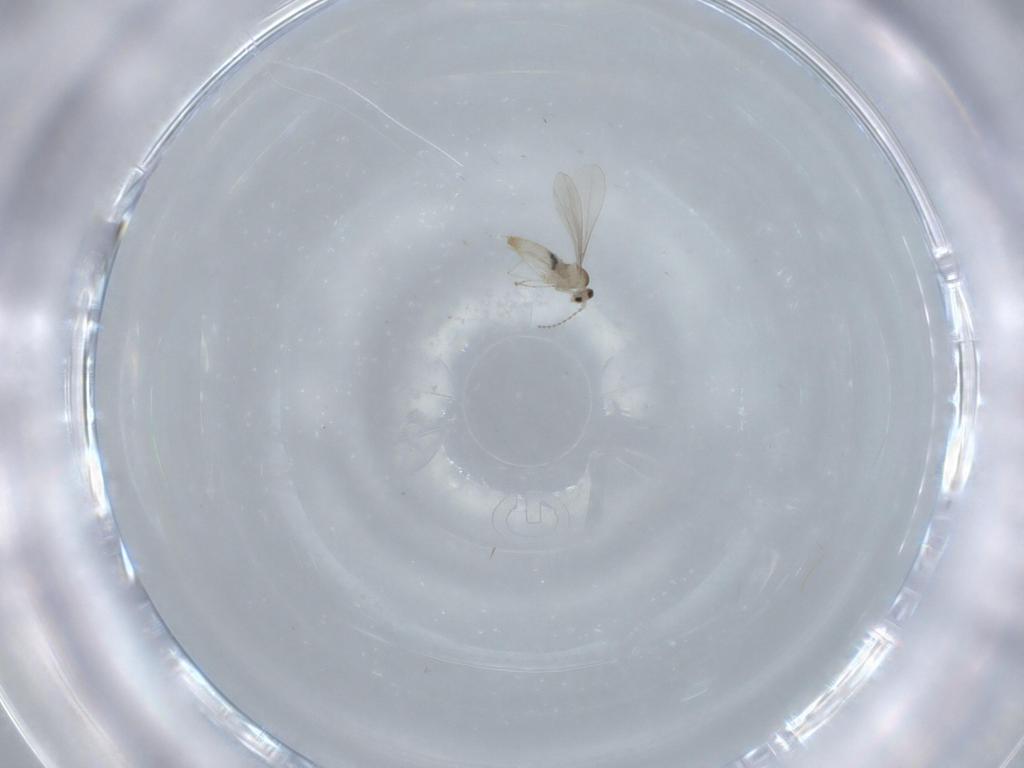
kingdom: Animalia
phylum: Arthropoda
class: Insecta
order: Diptera
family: Cecidomyiidae
